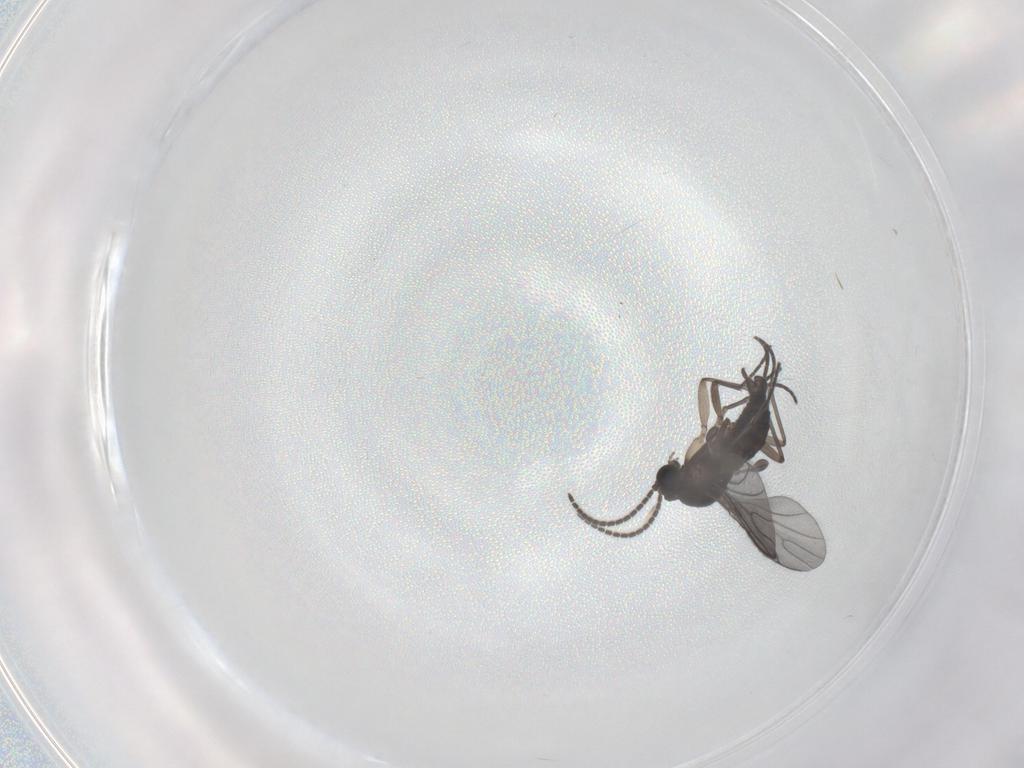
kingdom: Animalia
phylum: Arthropoda
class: Insecta
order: Diptera
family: Sciaridae
